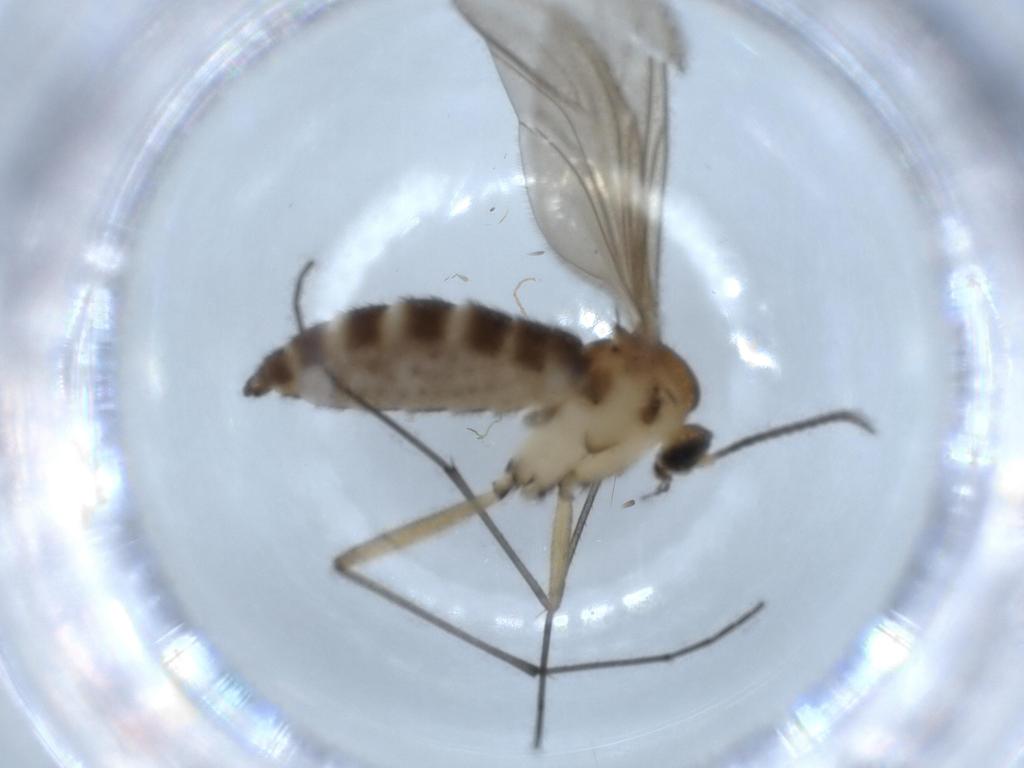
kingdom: Animalia
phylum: Arthropoda
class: Insecta
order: Diptera
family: Sciaridae
